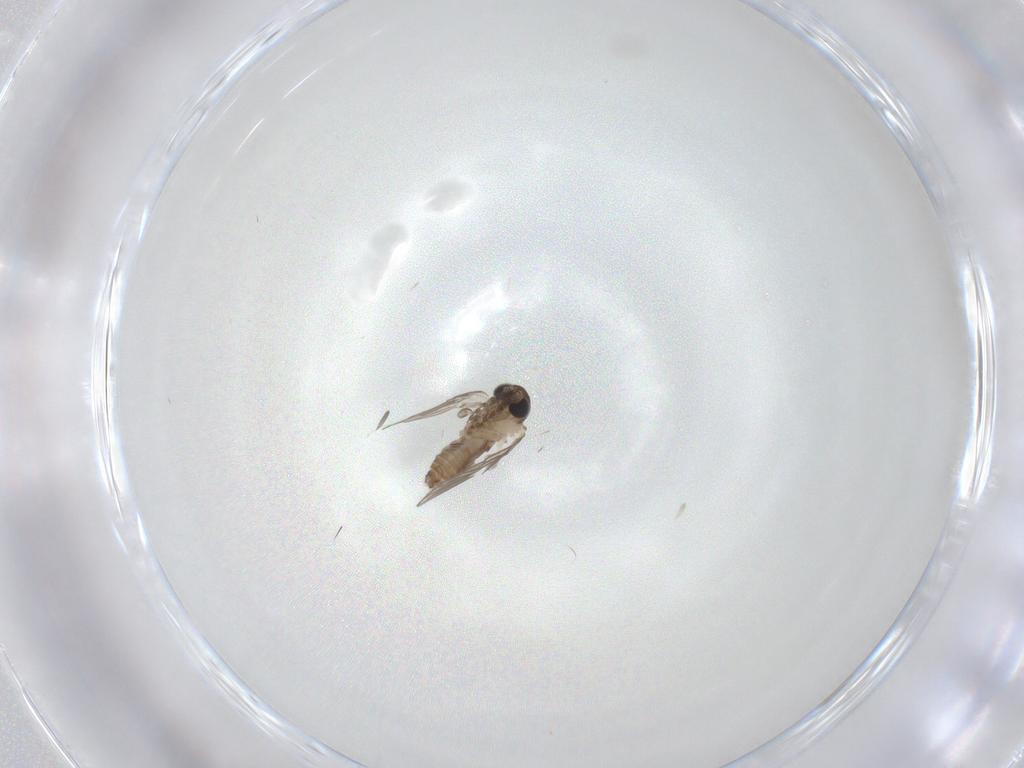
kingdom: Animalia
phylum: Arthropoda
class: Insecta
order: Diptera
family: Psychodidae
